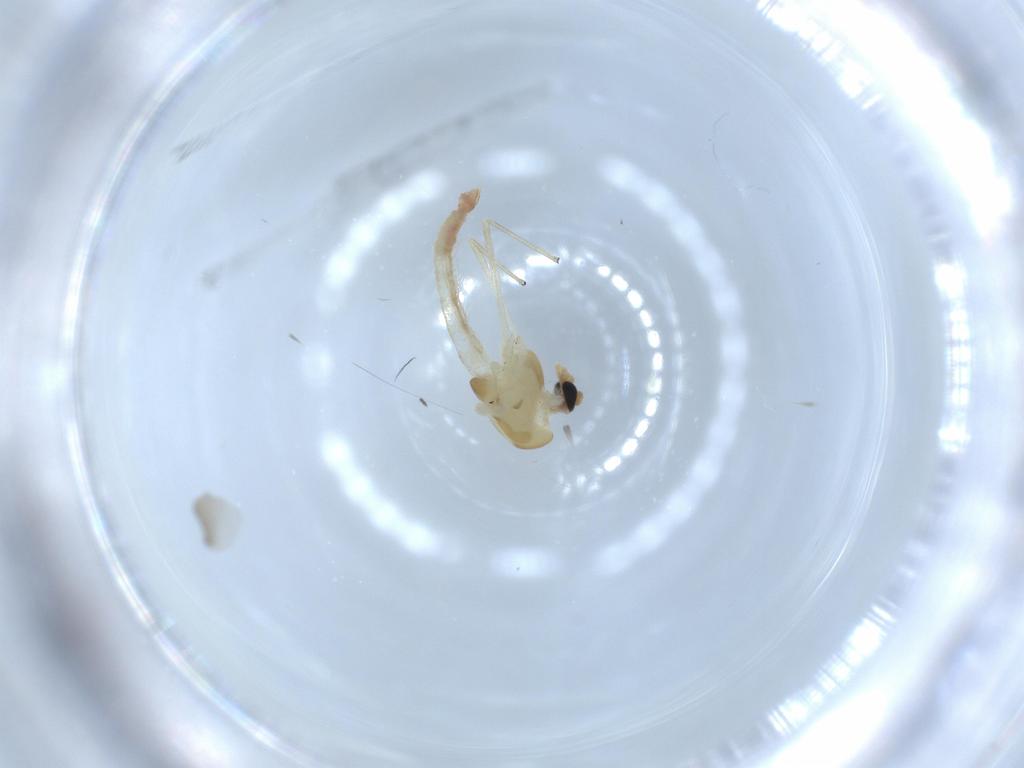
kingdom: Animalia
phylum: Arthropoda
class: Insecta
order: Diptera
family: Chironomidae
